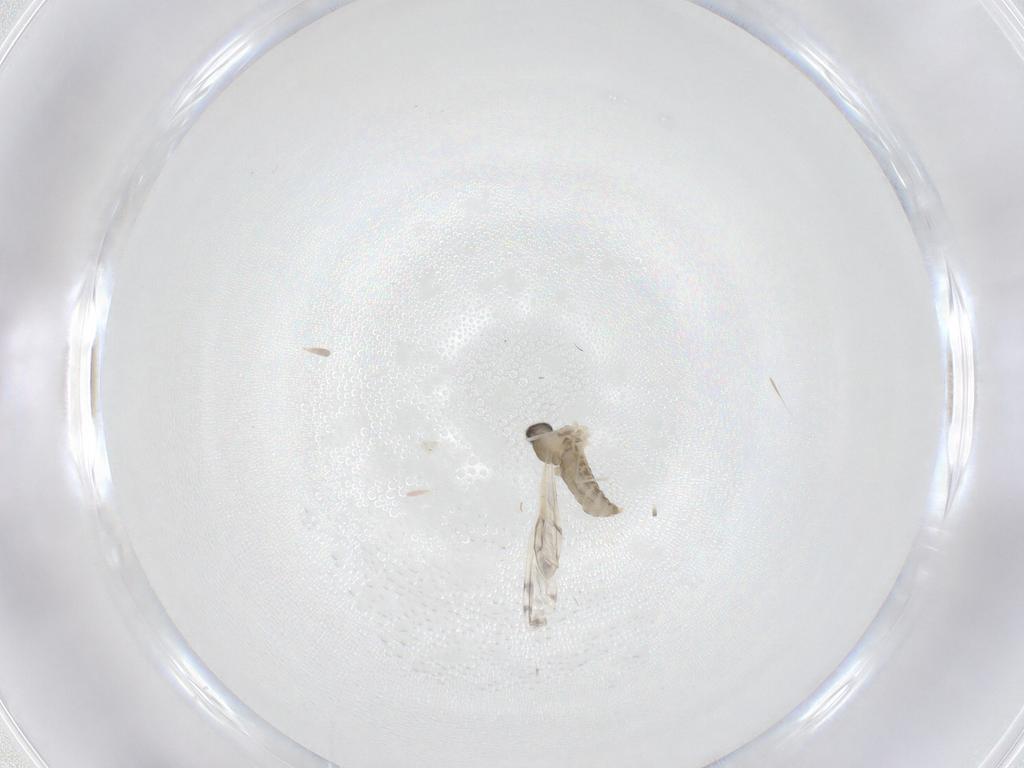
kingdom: Animalia
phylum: Arthropoda
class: Insecta
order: Diptera
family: Cecidomyiidae
